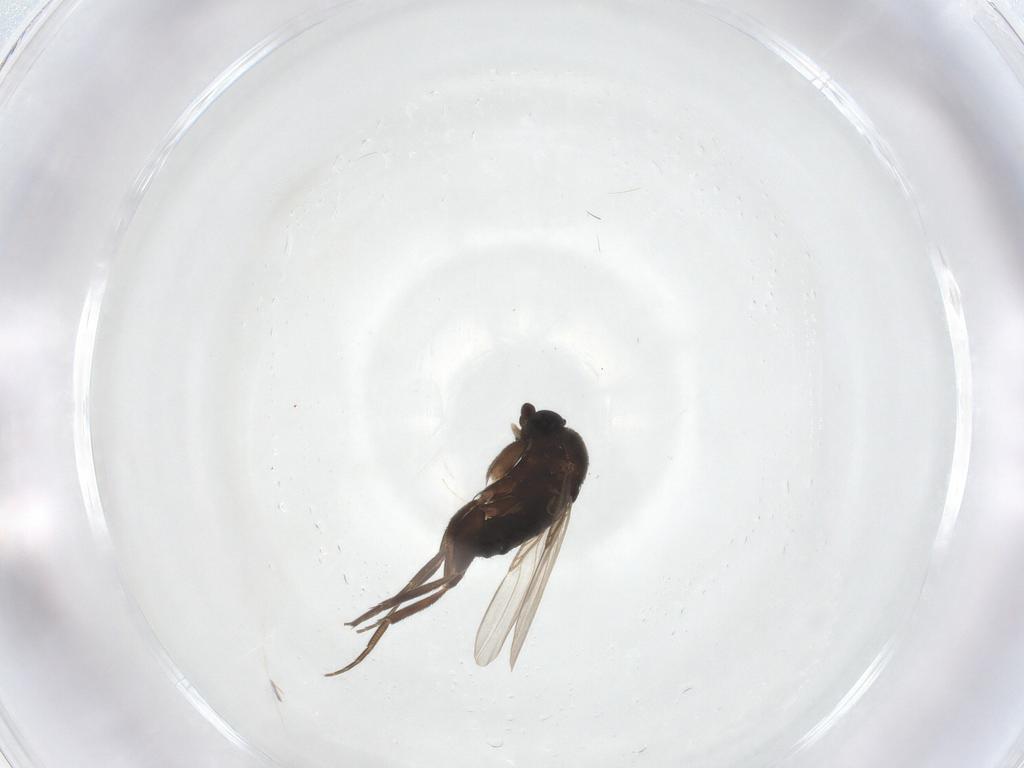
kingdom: Animalia
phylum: Arthropoda
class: Insecta
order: Diptera
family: Phoridae
